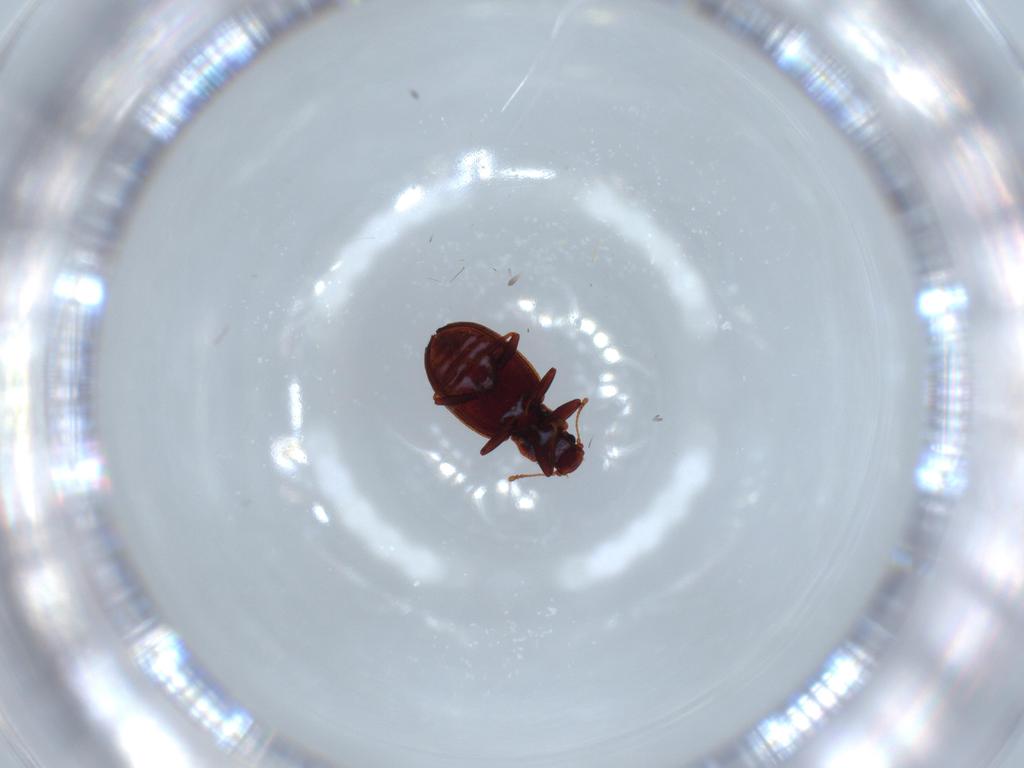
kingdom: Animalia
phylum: Arthropoda
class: Insecta
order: Coleoptera
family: Coccinellidae
